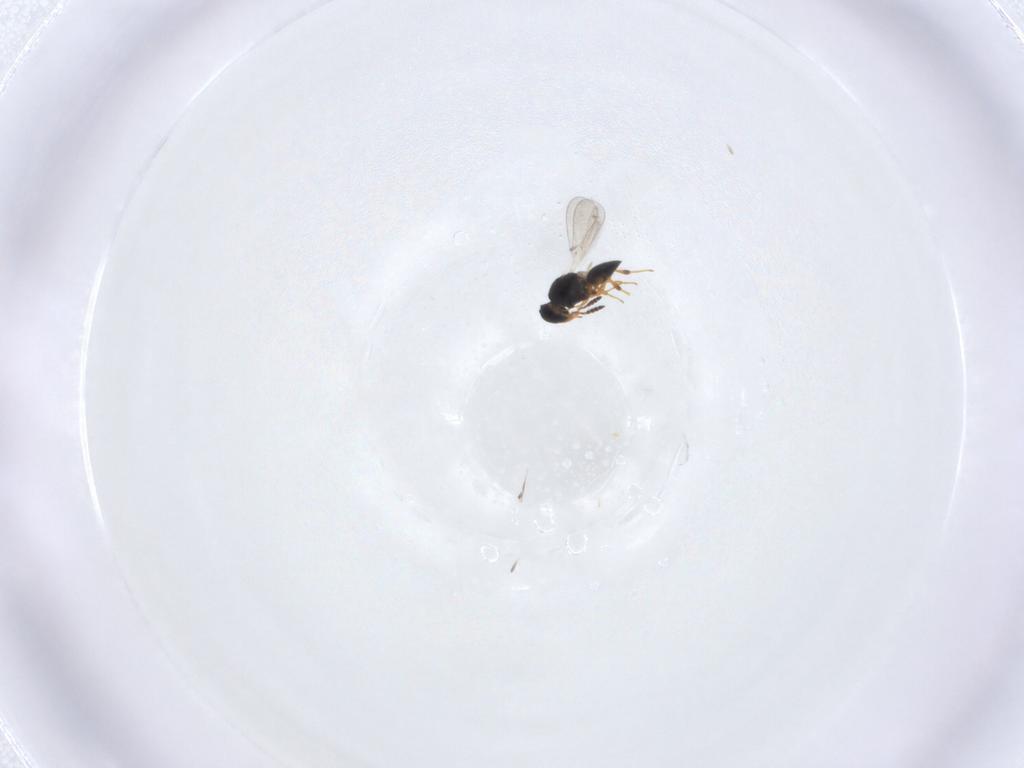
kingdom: Animalia
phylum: Arthropoda
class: Insecta
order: Hymenoptera
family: Platygastridae
